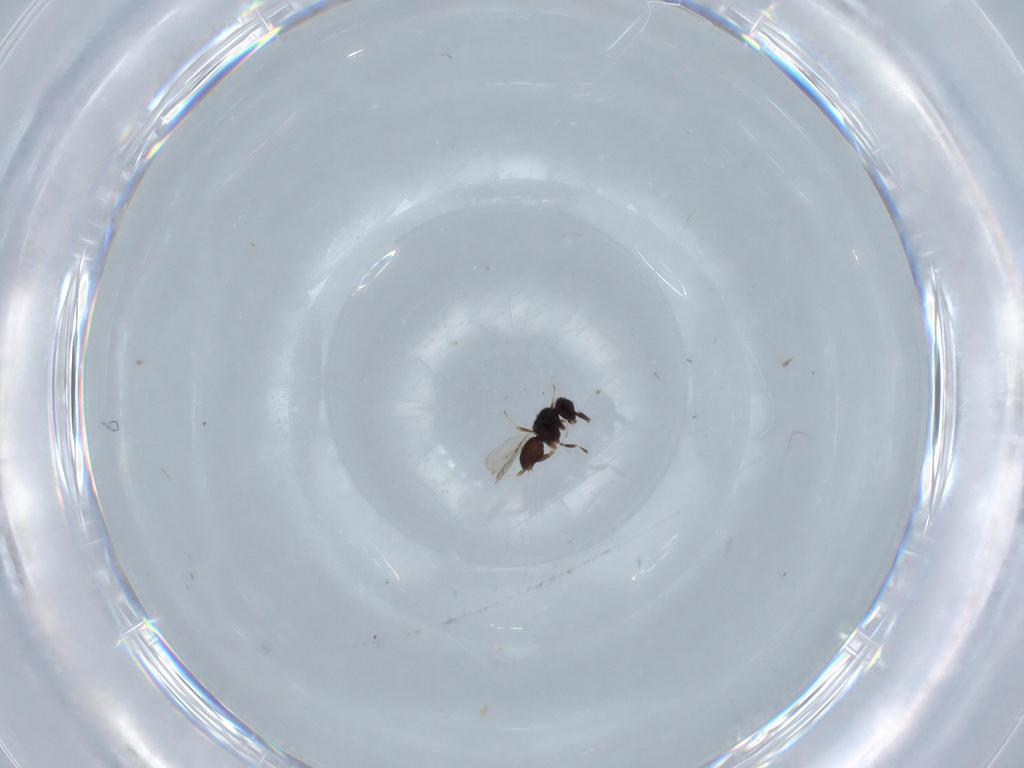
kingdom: Animalia
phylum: Arthropoda
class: Insecta
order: Hymenoptera
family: Ceraphronidae
